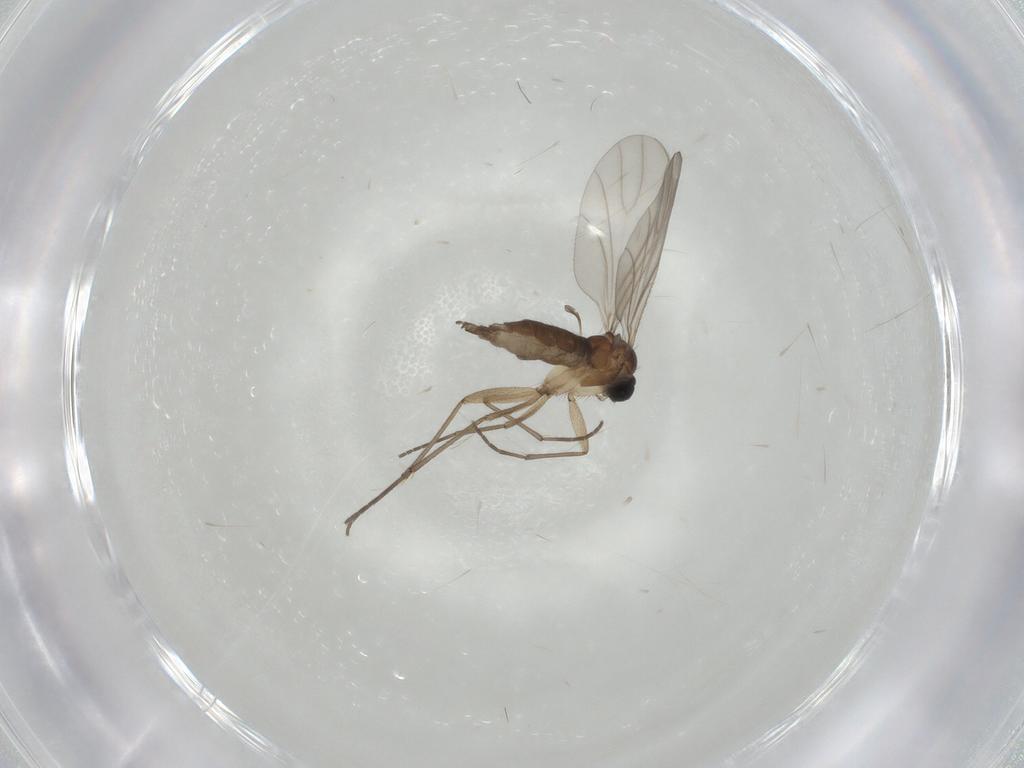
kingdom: Animalia
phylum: Arthropoda
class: Insecta
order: Diptera
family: Sciaridae
